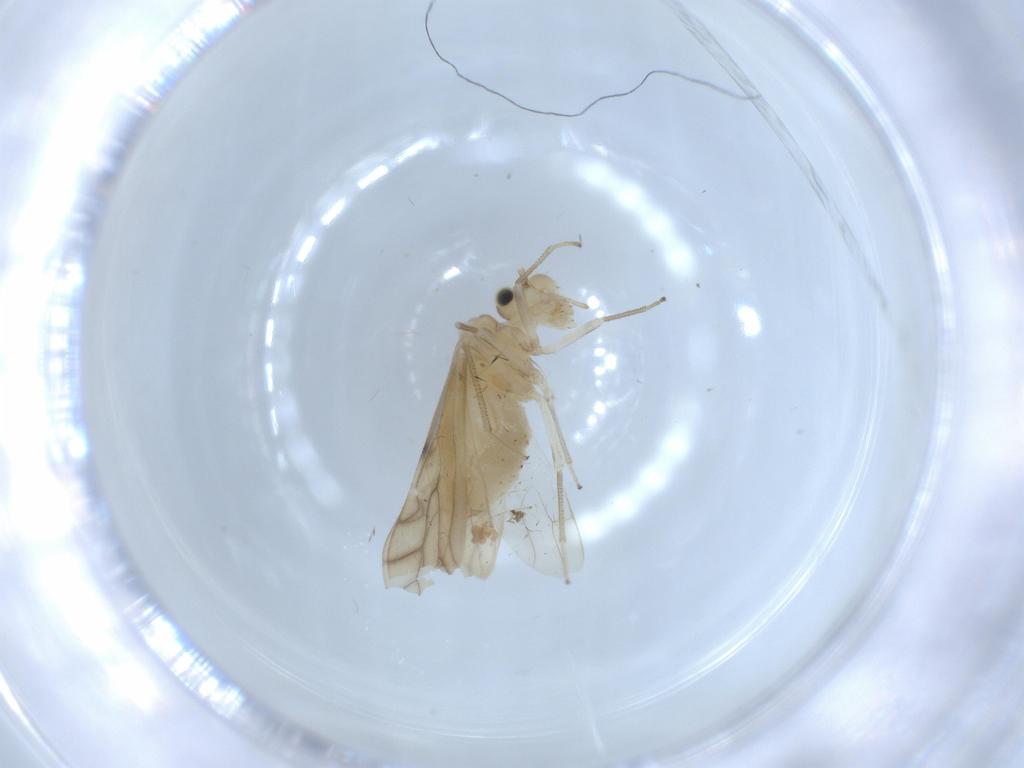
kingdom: Animalia
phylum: Arthropoda
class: Insecta
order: Psocodea
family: Caeciliusidae
